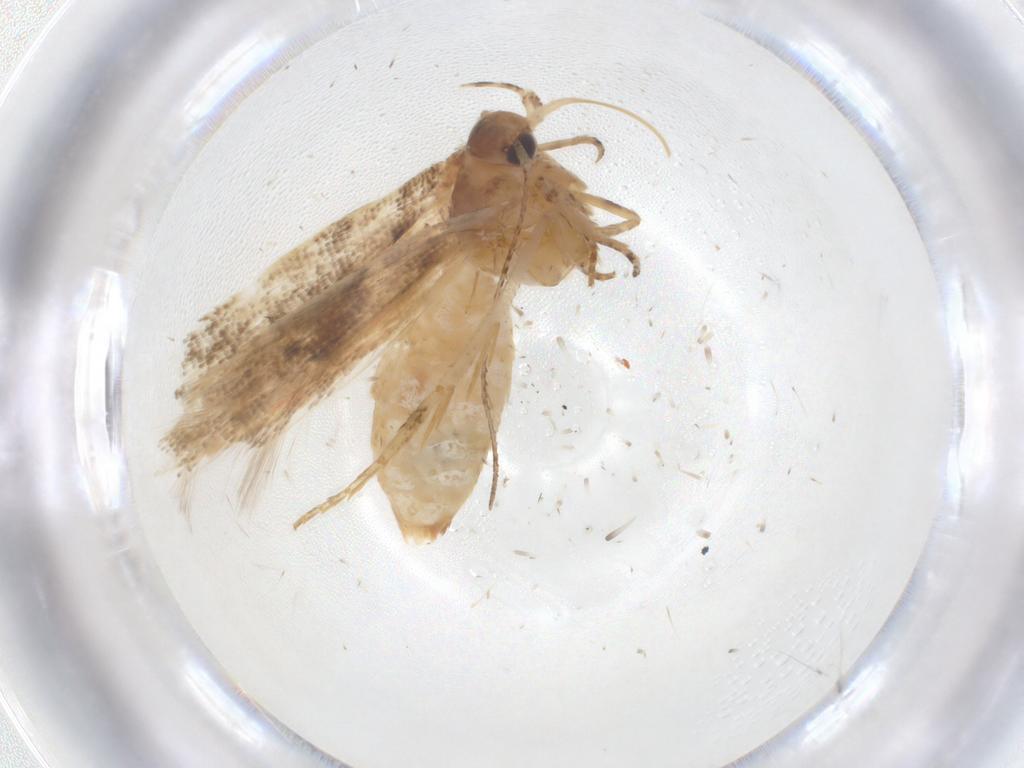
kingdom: Animalia
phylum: Arthropoda
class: Insecta
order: Lepidoptera
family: Gelechiidae
